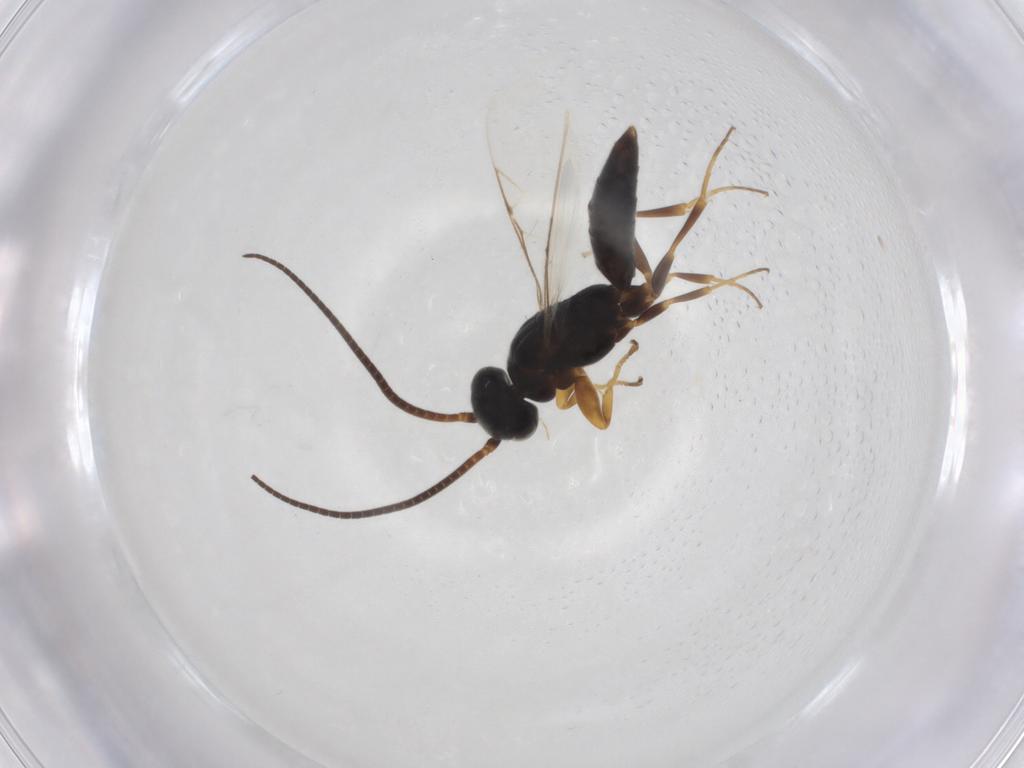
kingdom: Animalia
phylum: Arthropoda
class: Insecta
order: Hymenoptera
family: Sclerogibbidae
